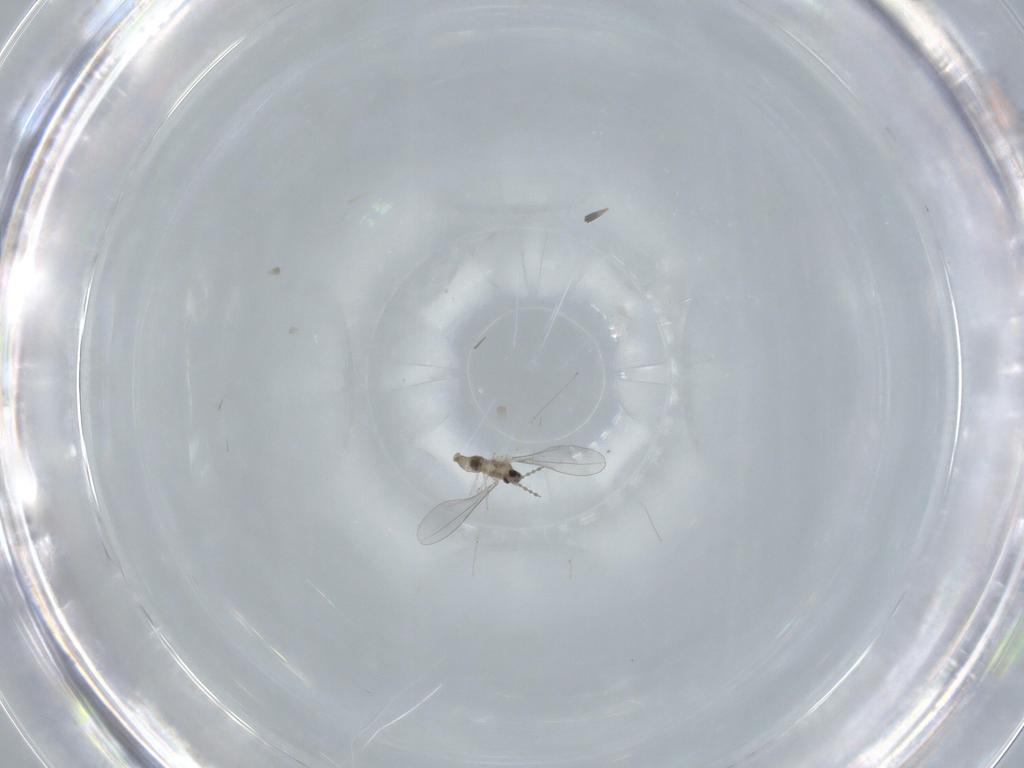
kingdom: Animalia
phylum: Arthropoda
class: Insecta
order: Diptera
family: Cecidomyiidae
